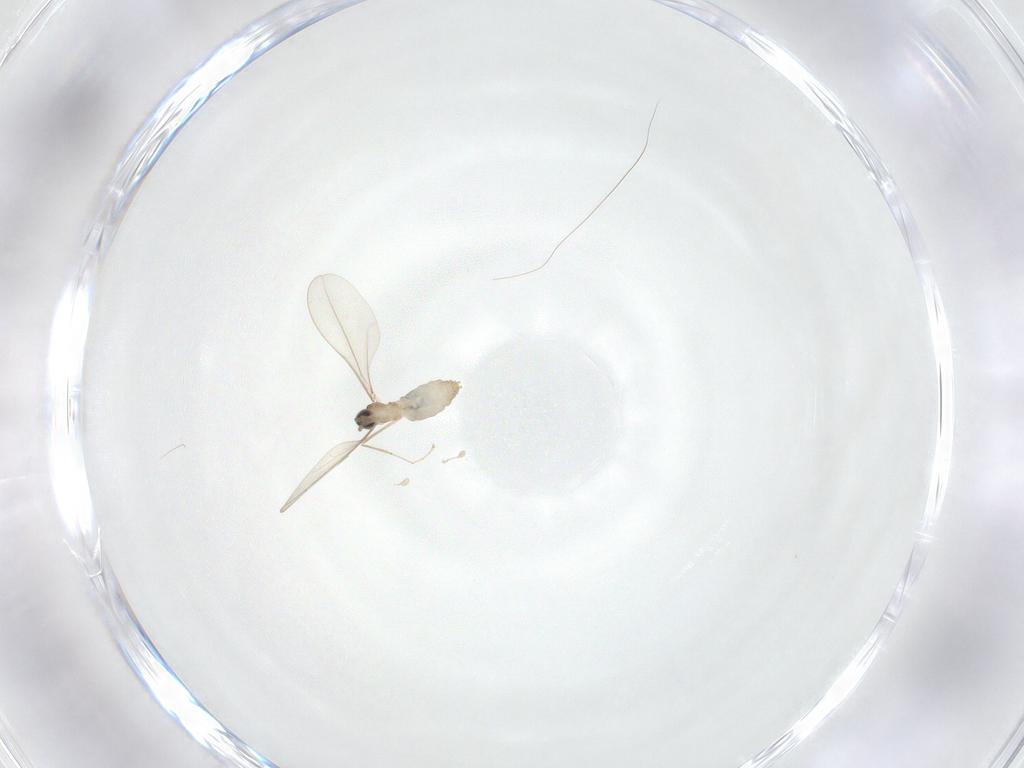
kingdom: Animalia
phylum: Arthropoda
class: Insecta
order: Diptera
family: Cecidomyiidae
